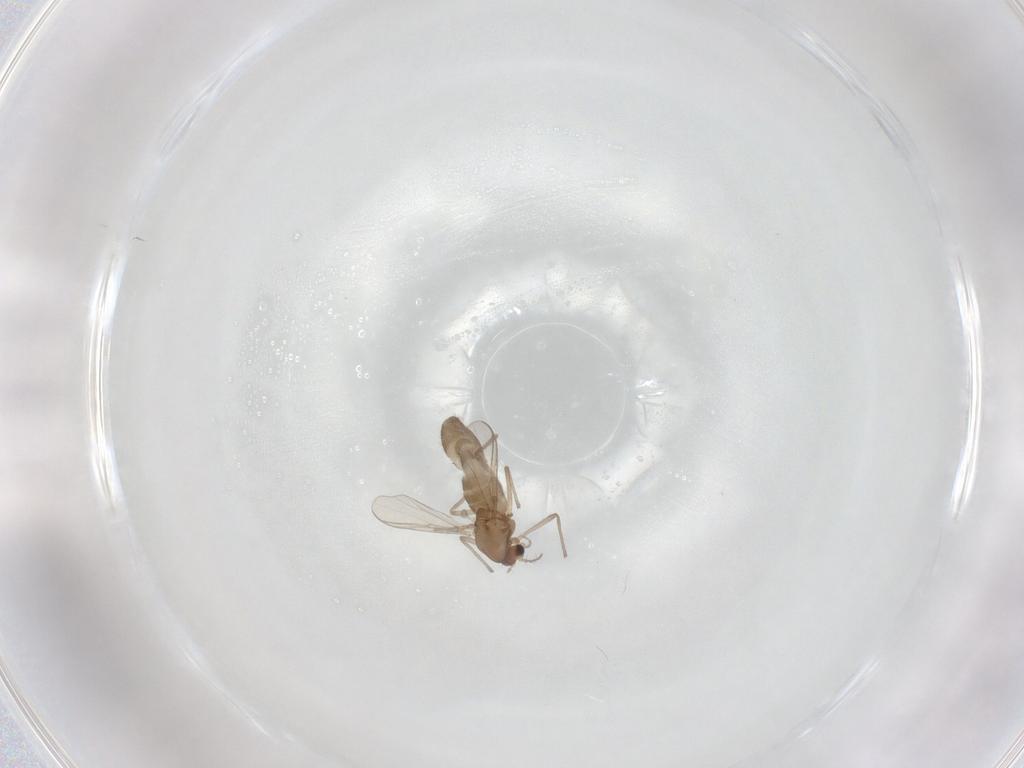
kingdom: Animalia
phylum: Arthropoda
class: Insecta
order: Diptera
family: Chironomidae
